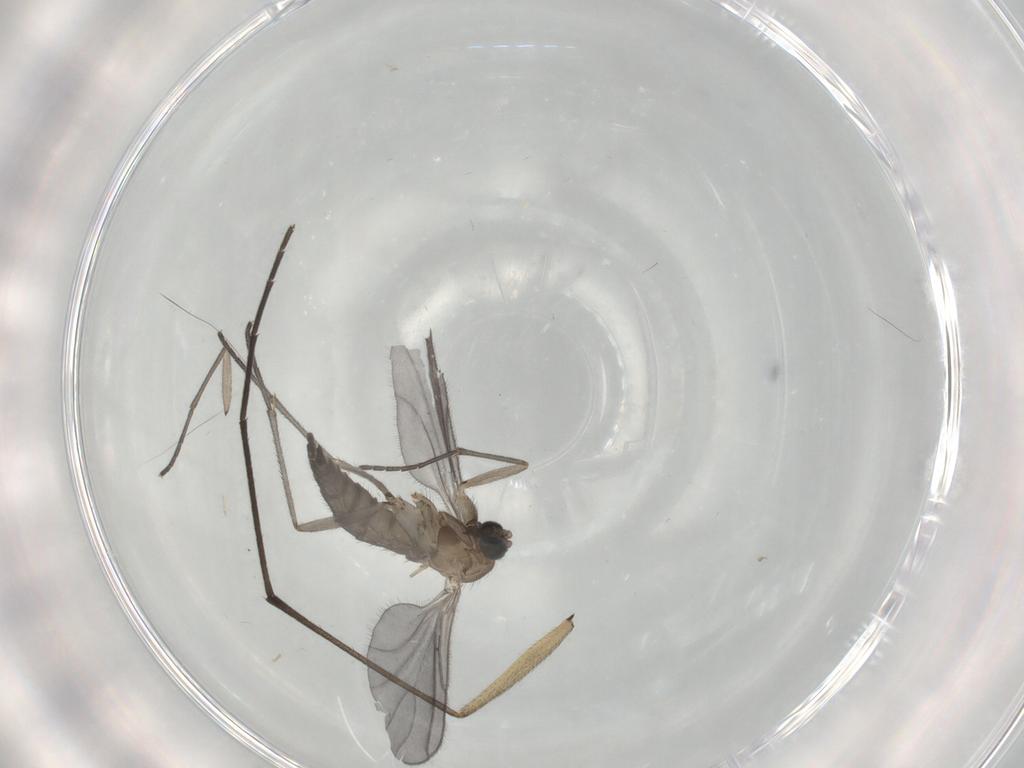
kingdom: Animalia
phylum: Arthropoda
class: Insecta
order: Diptera
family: Sciaridae
